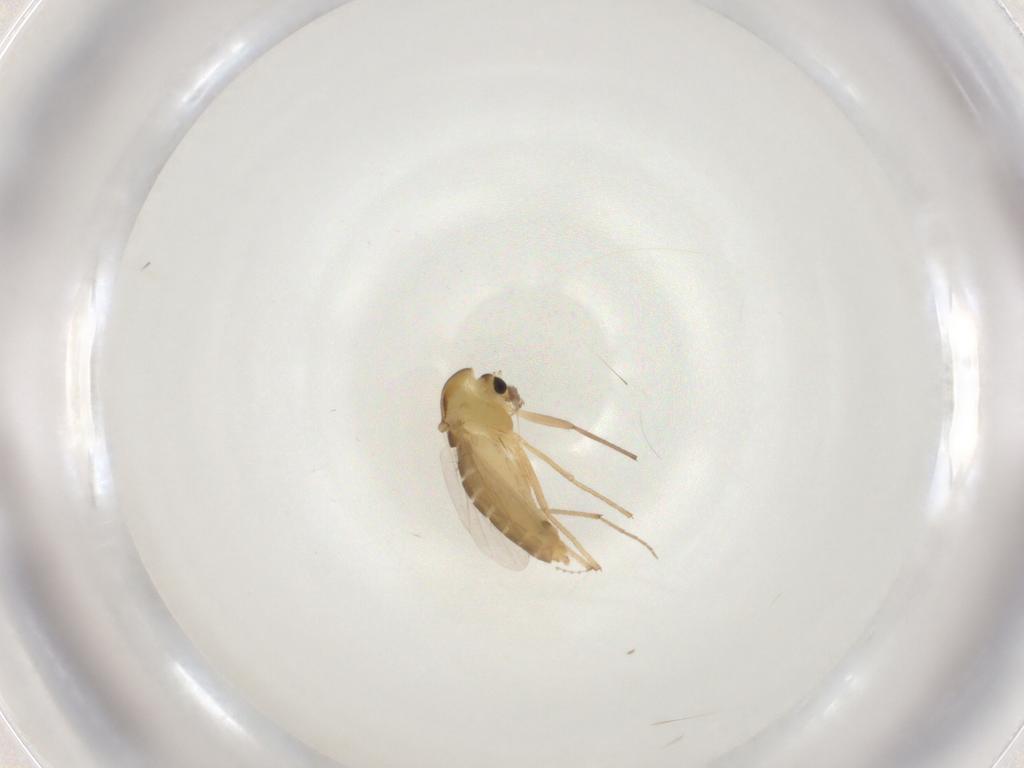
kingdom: Animalia
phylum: Arthropoda
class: Insecta
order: Diptera
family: Chironomidae
